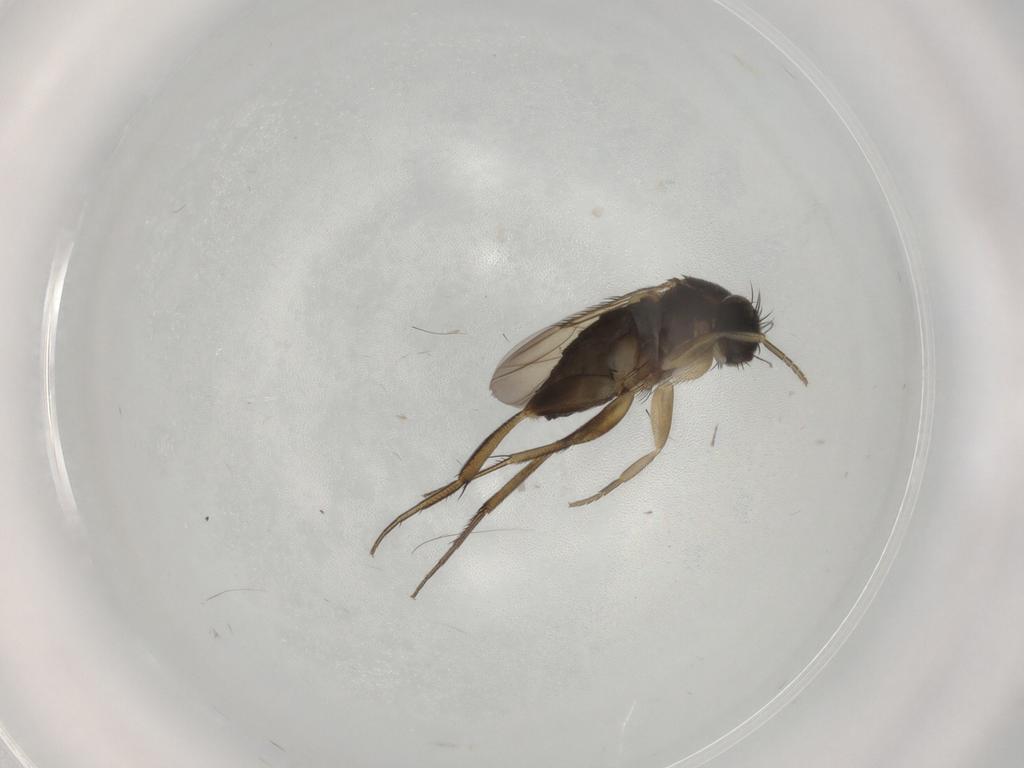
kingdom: Animalia
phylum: Arthropoda
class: Insecta
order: Diptera
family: Phoridae
